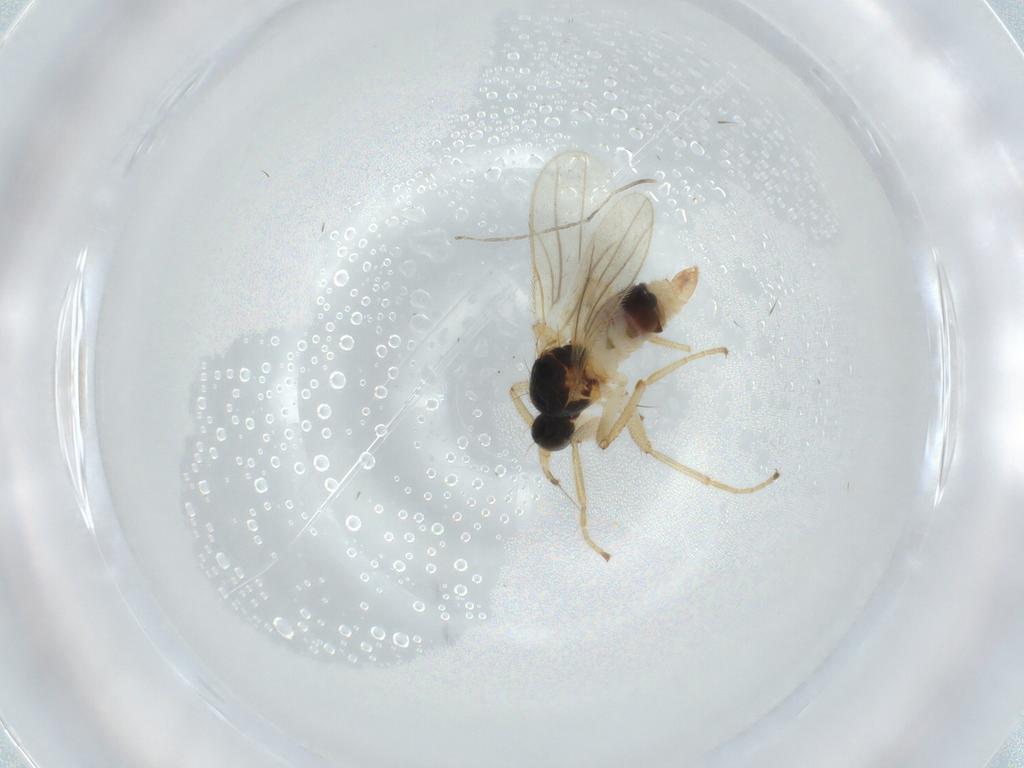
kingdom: Animalia
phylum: Arthropoda
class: Insecta
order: Diptera
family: Hybotidae
